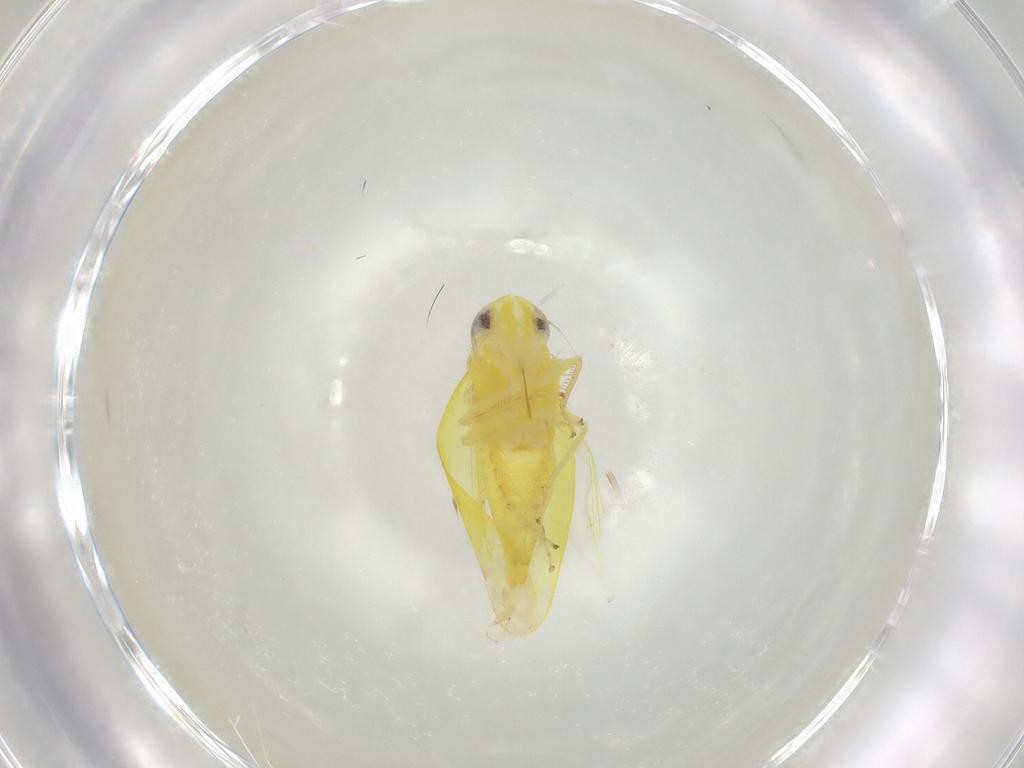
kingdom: Animalia
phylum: Arthropoda
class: Insecta
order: Hemiptera
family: Cicadellidae
